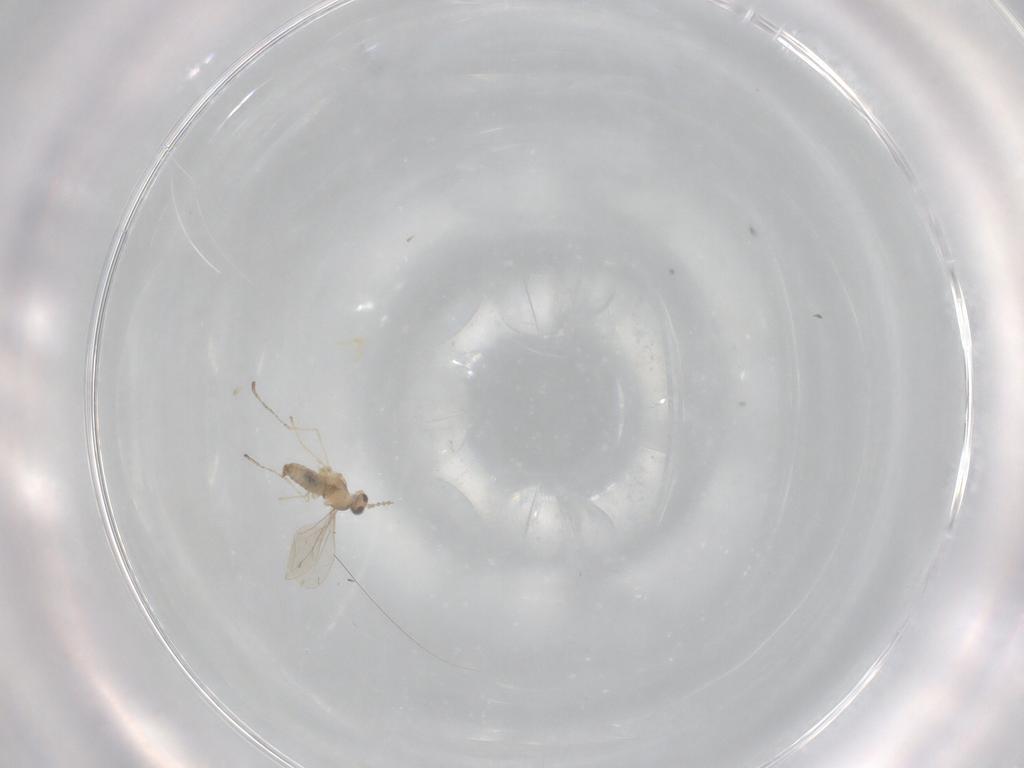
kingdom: Animalia
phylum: Arthropoda
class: Insecta
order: Diptera
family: Cecidomyiidae
